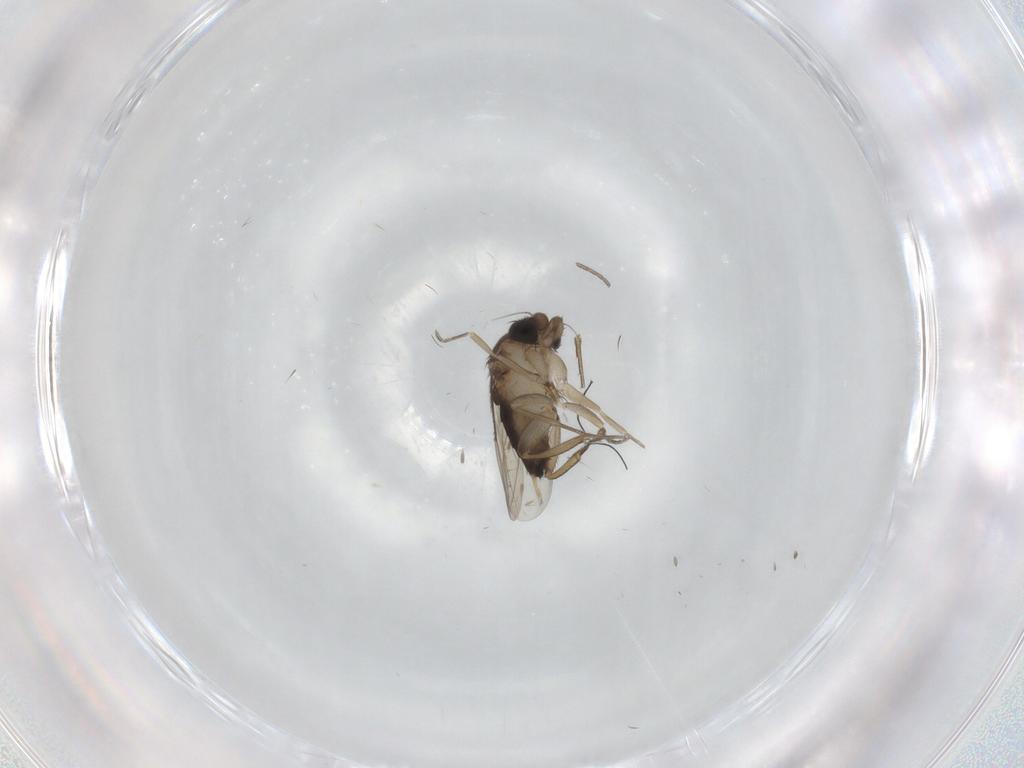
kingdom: Animalia
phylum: Arthropoda
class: Insecta
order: Diptera
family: Phoridae
